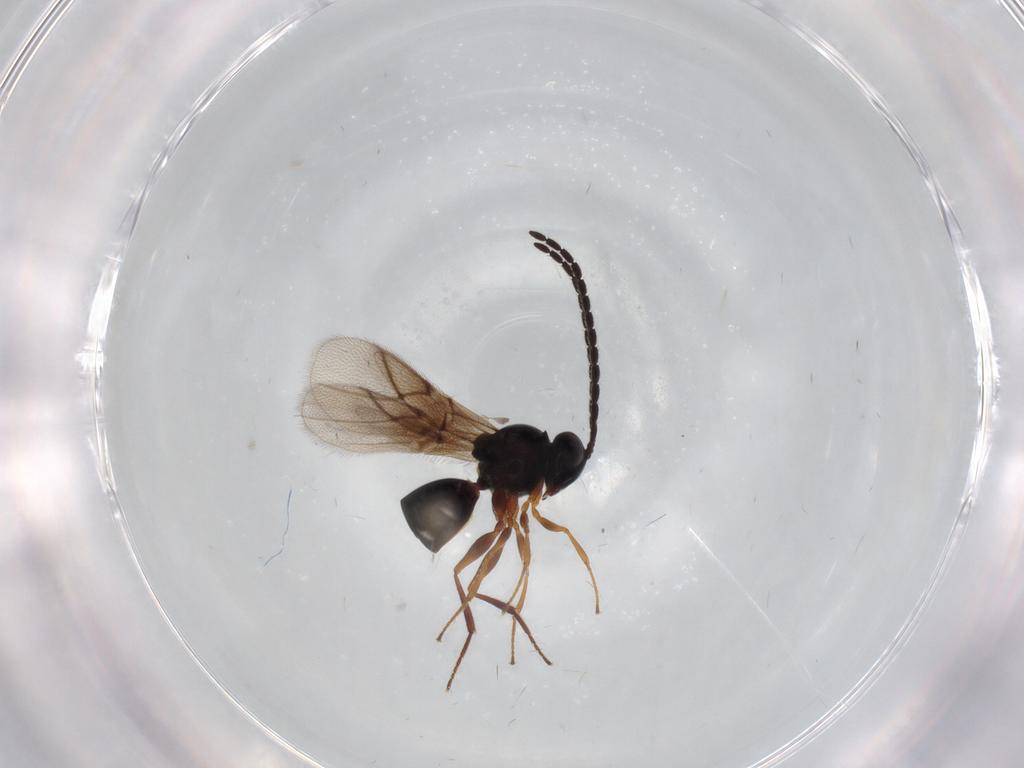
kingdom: Animalia
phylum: Arthropoda
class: Insecta
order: Hymenoptera
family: Figitidae
